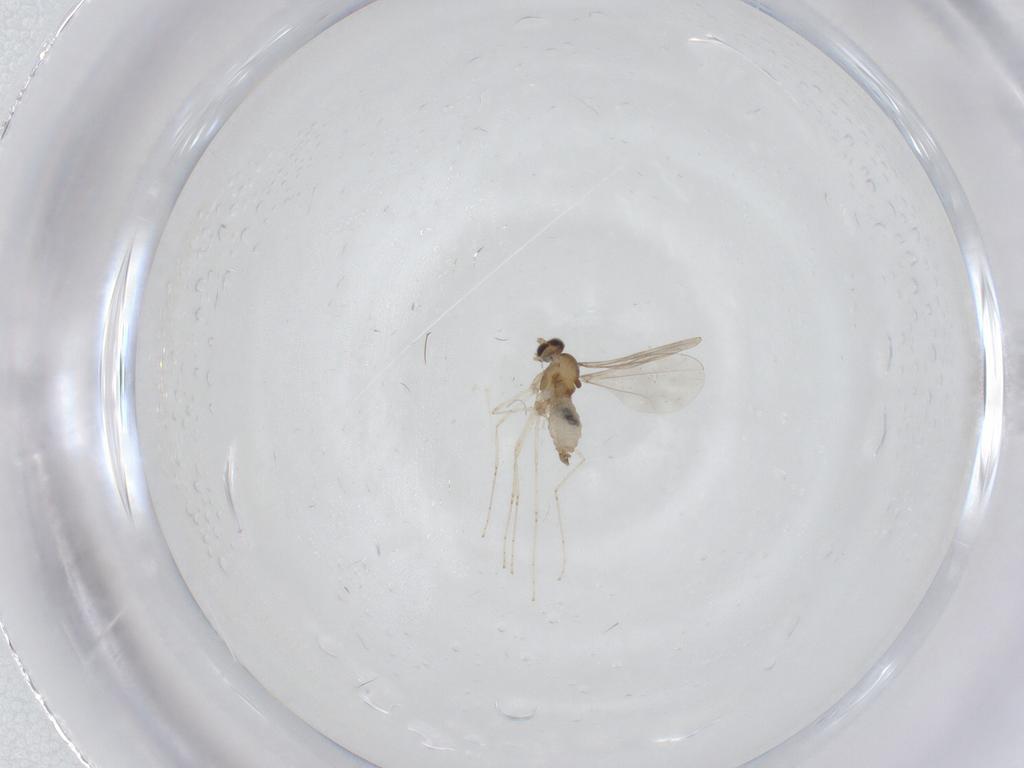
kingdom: Animalia
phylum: Arthropoda
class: Insecta
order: Diptera
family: Cecidomyiidae
